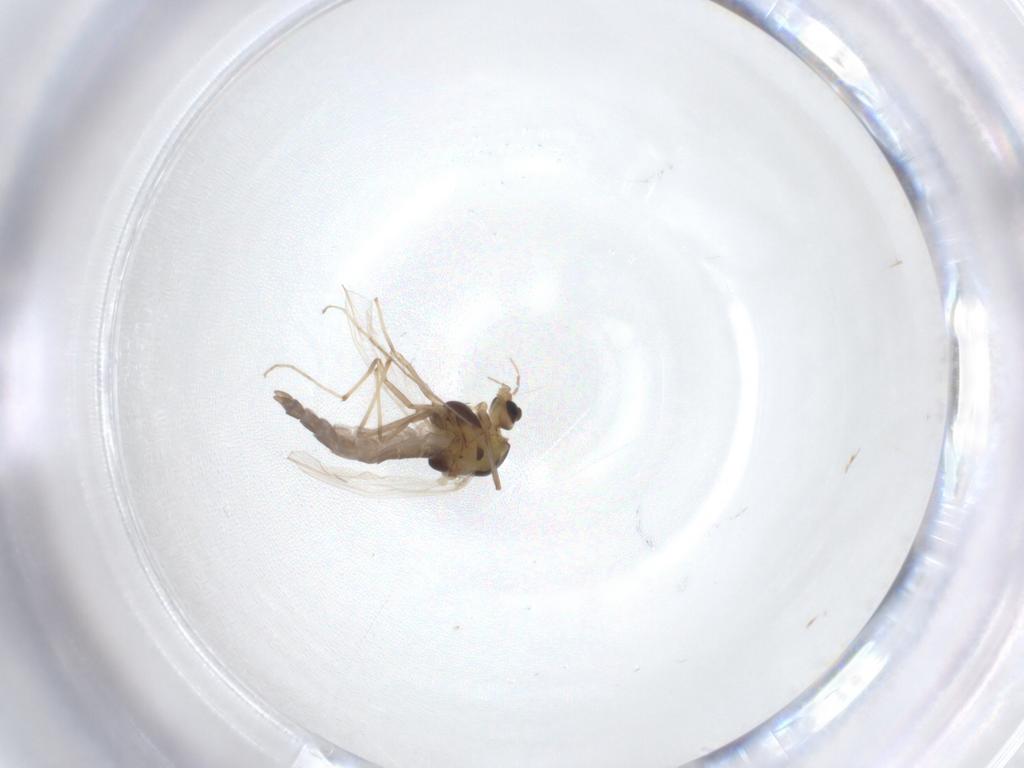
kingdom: Animalia
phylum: Arthropoda
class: Insecta
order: Diptera
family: Chironomidae
